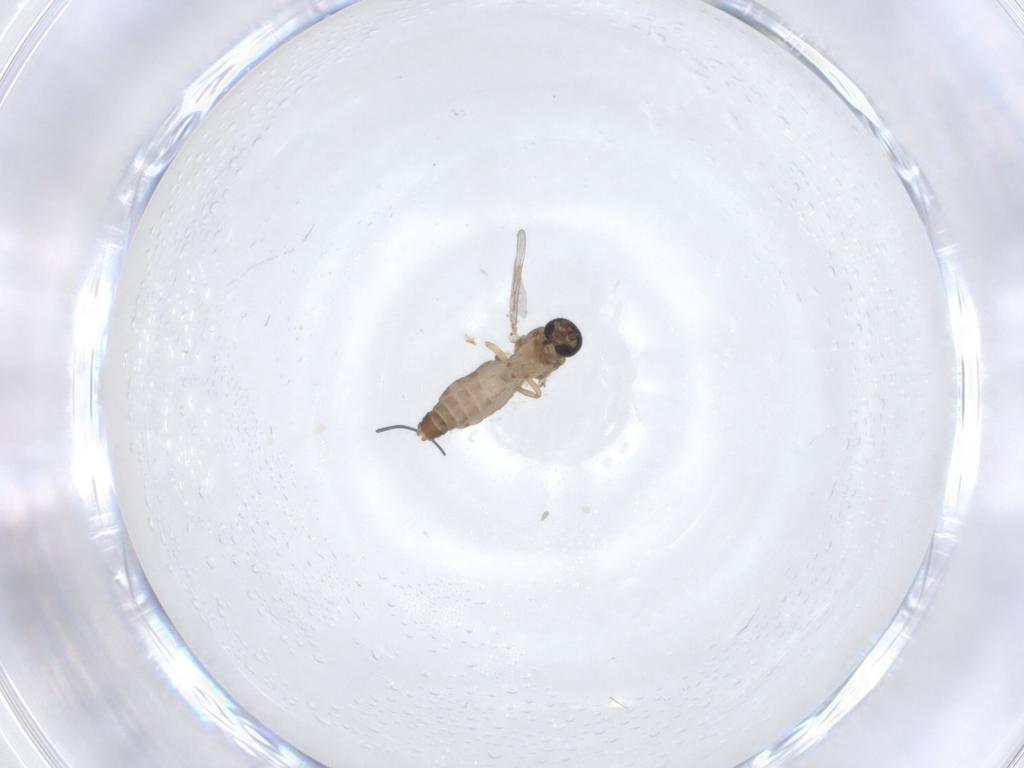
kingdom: Animalia
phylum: Arthropoda
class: Insecta
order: Diptera
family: Ceratopogonidae
